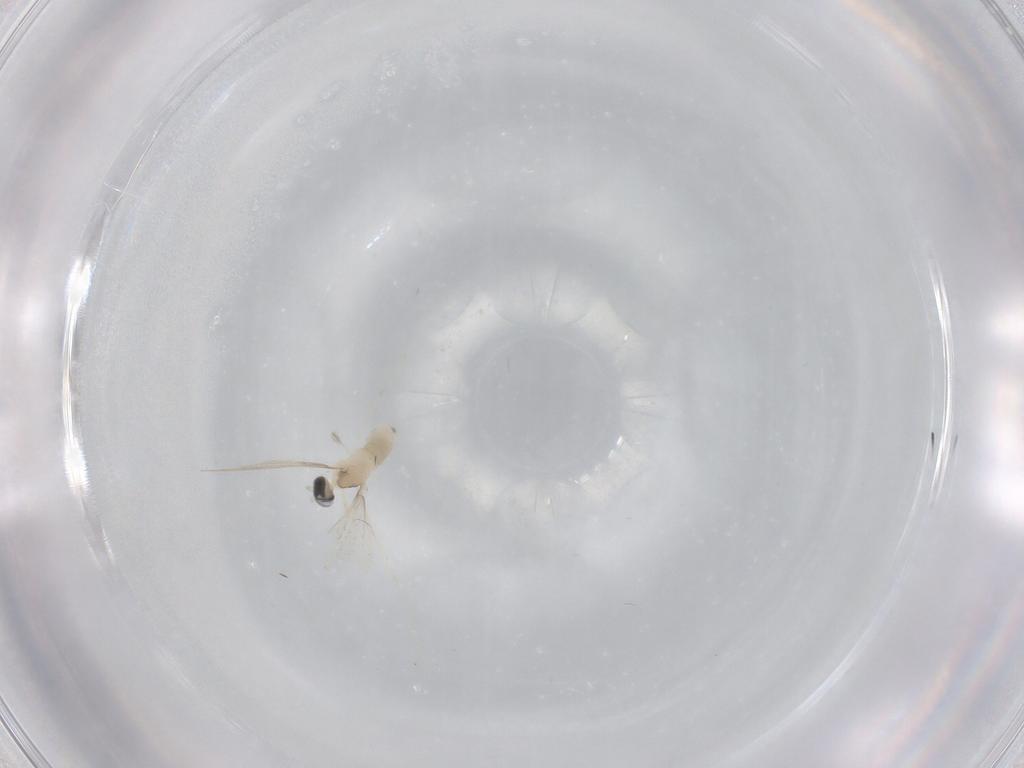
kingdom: Animalia
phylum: Arthropoda
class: Insecta
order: Diptera
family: Cecidomyiidae
